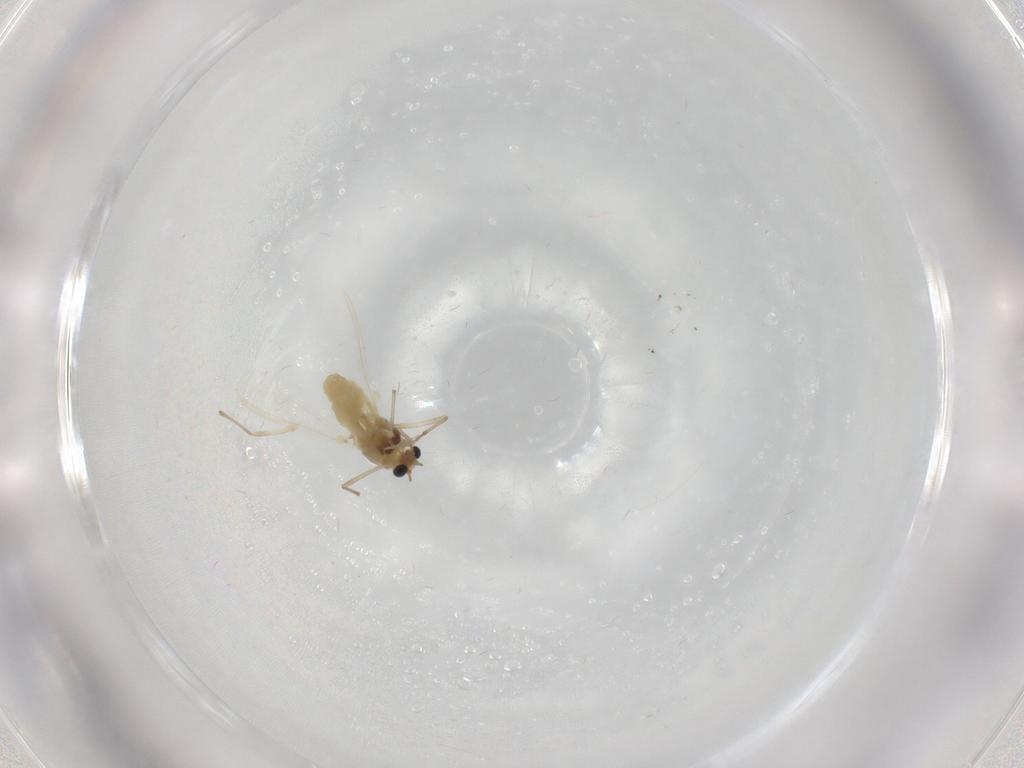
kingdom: Animalia
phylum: Arthropoda
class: Insecta
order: Diptera
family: Chironomidae
